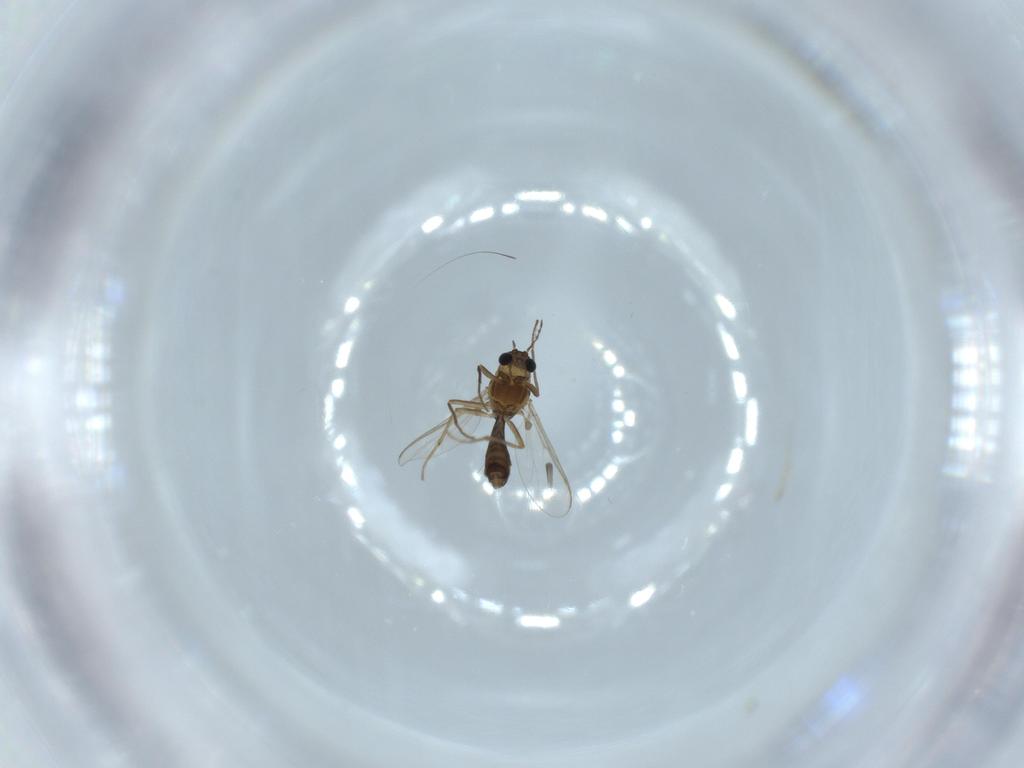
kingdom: Animalia
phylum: Arthropoda
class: Insecta
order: Diptera
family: Chironomidae
